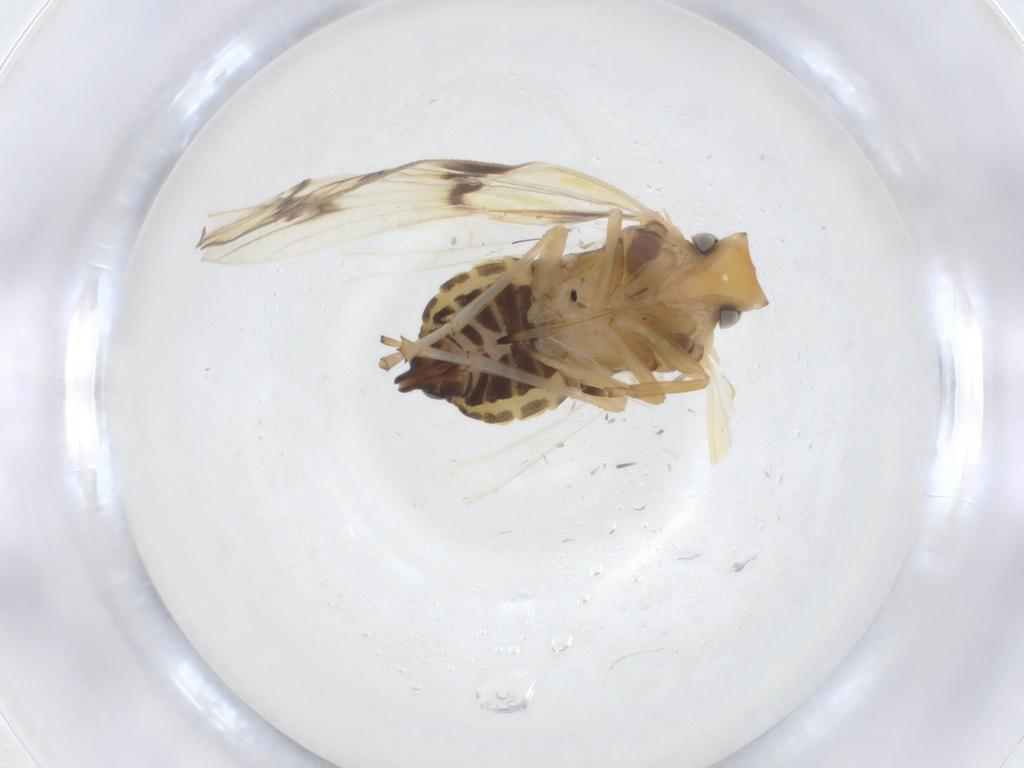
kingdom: Animalia
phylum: Arthropoda
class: Insecta
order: Hemiptera
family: Cixiidae
